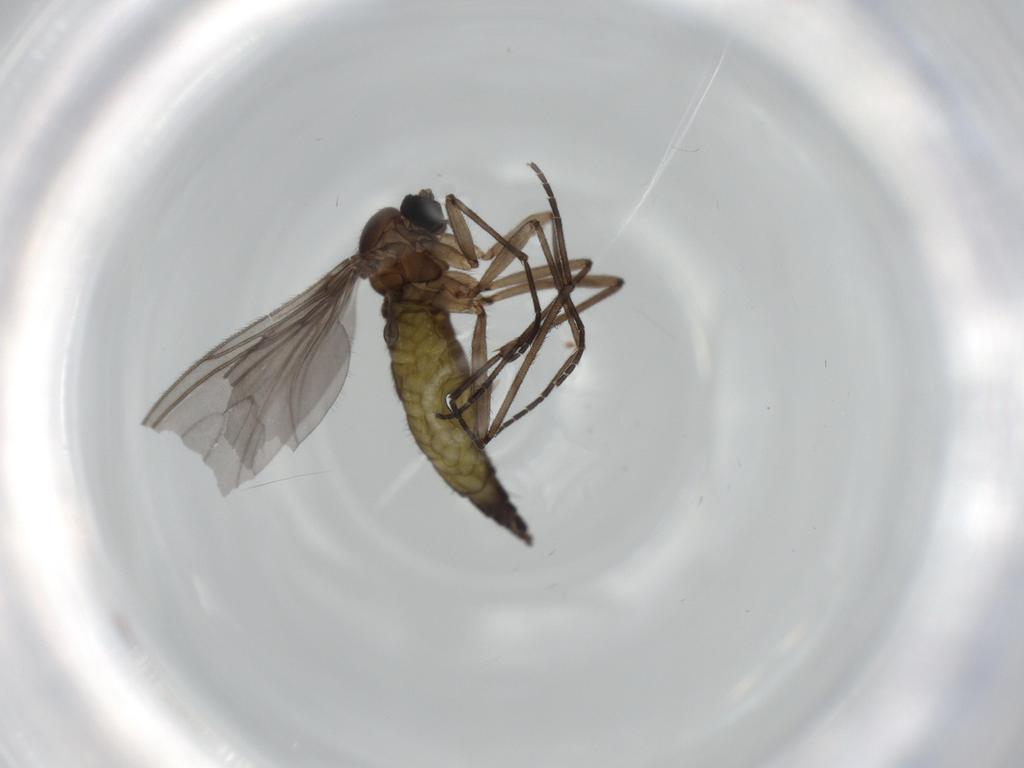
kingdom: Animalia
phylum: Arthropoda
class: Insecta
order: Diptera
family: Sciaridae
